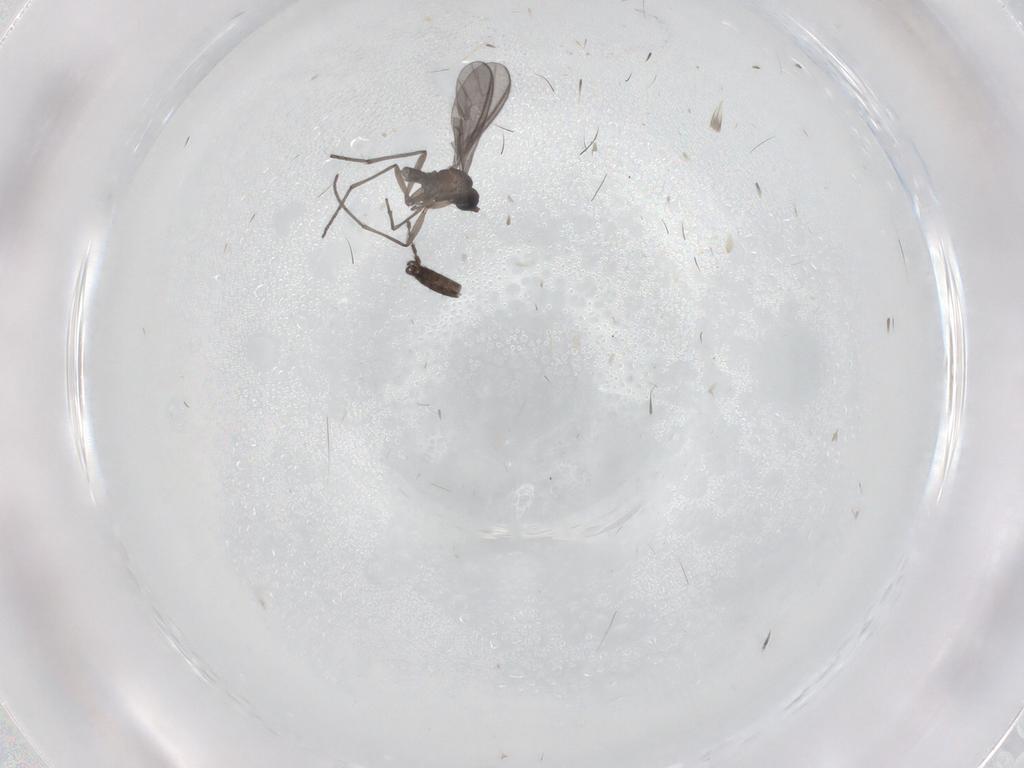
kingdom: Animalia
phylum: Arthropoda
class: Insecta
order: Diptera
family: Sciaridae
